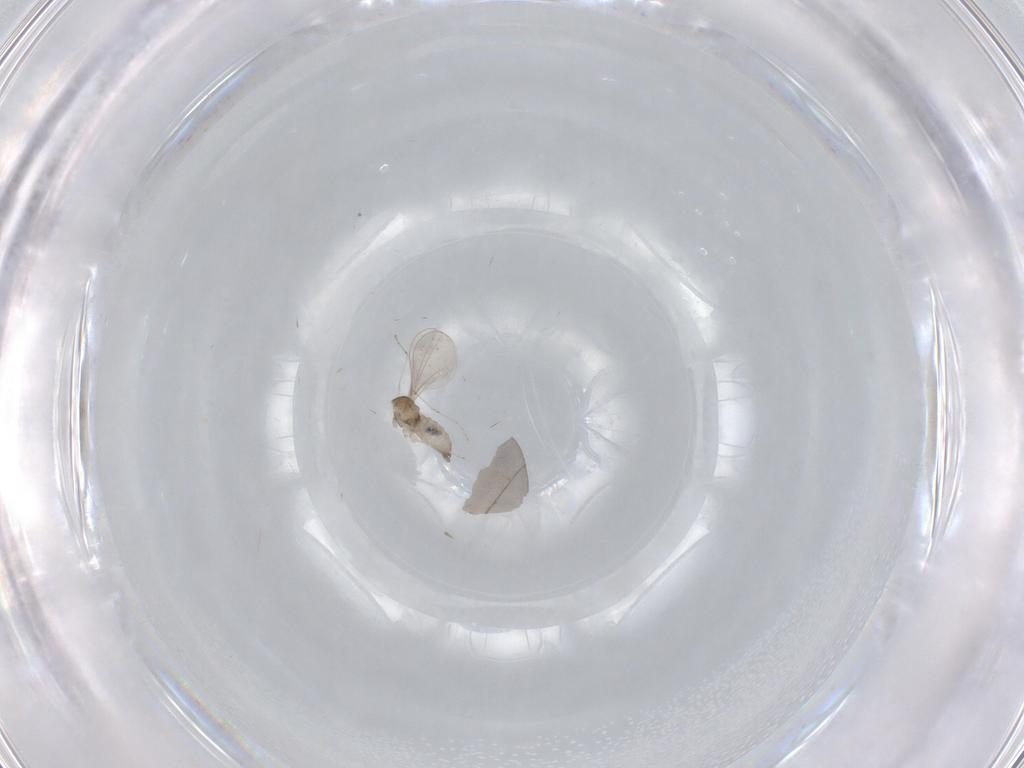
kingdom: Animalia
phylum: Arthropoda
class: Insecta
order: Diptera
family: Cecidomyiidae
